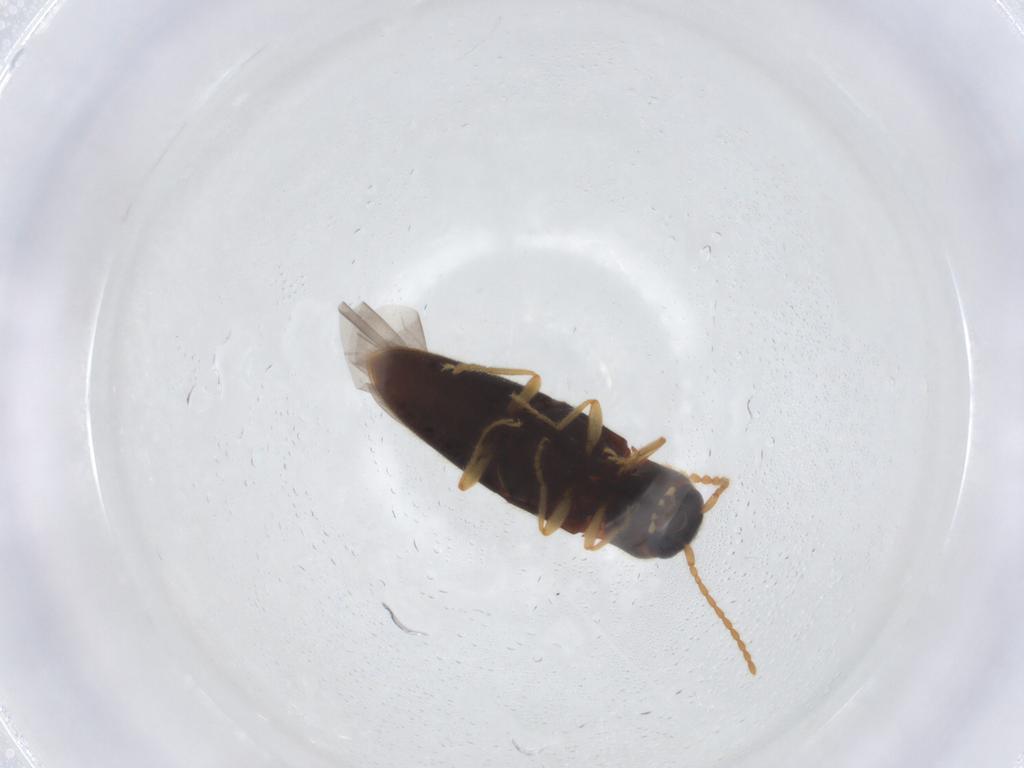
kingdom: Animalia
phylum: Arthropoda
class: Insecta
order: Coleoptera
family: Elateridae
